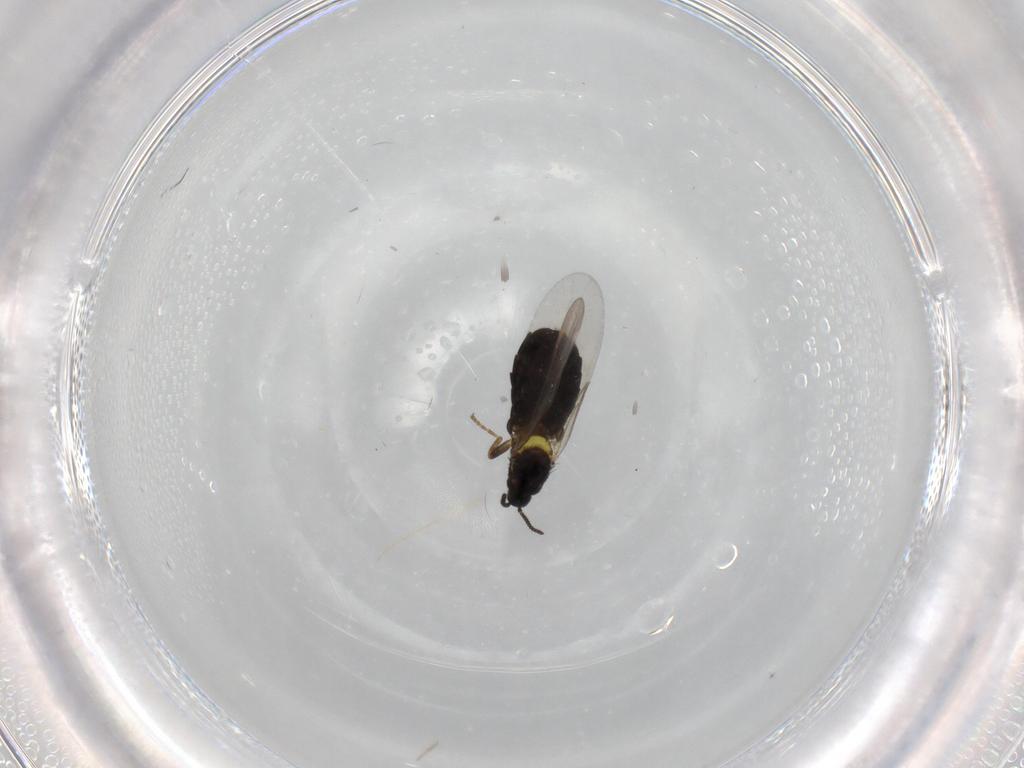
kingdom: Animalia
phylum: Arthropoda
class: Insecta
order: Diptera
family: Scatopsidae
